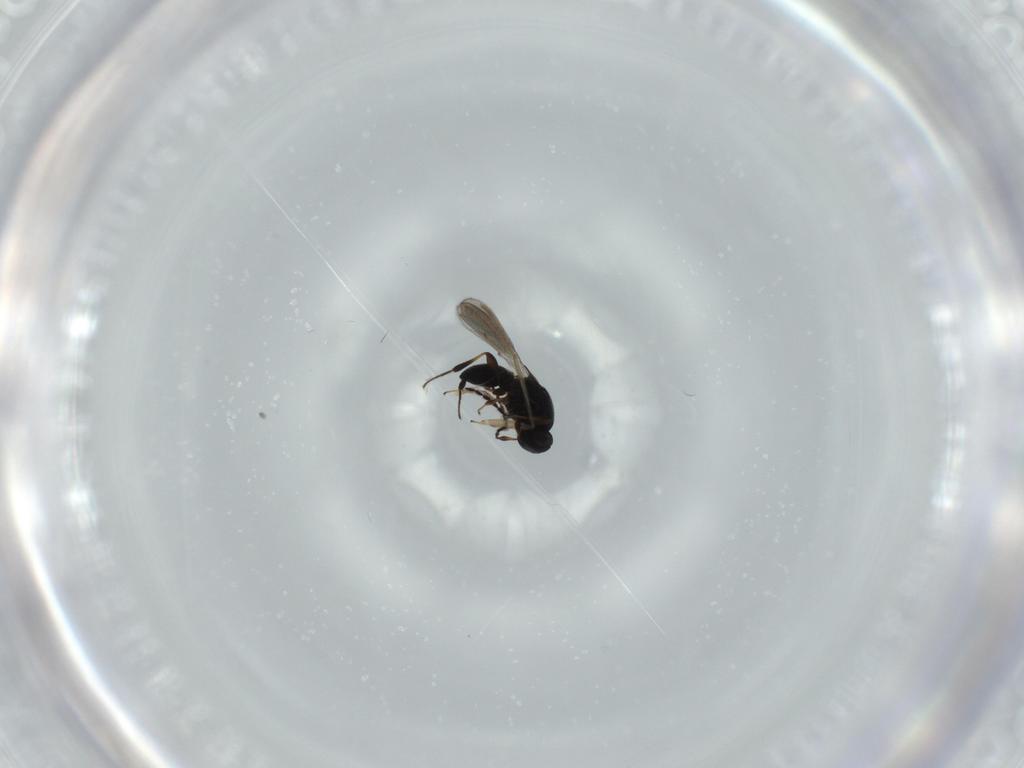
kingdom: Animalia
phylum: Arthropoda
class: Insecta
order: Hymenoptera
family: Platygastridae
